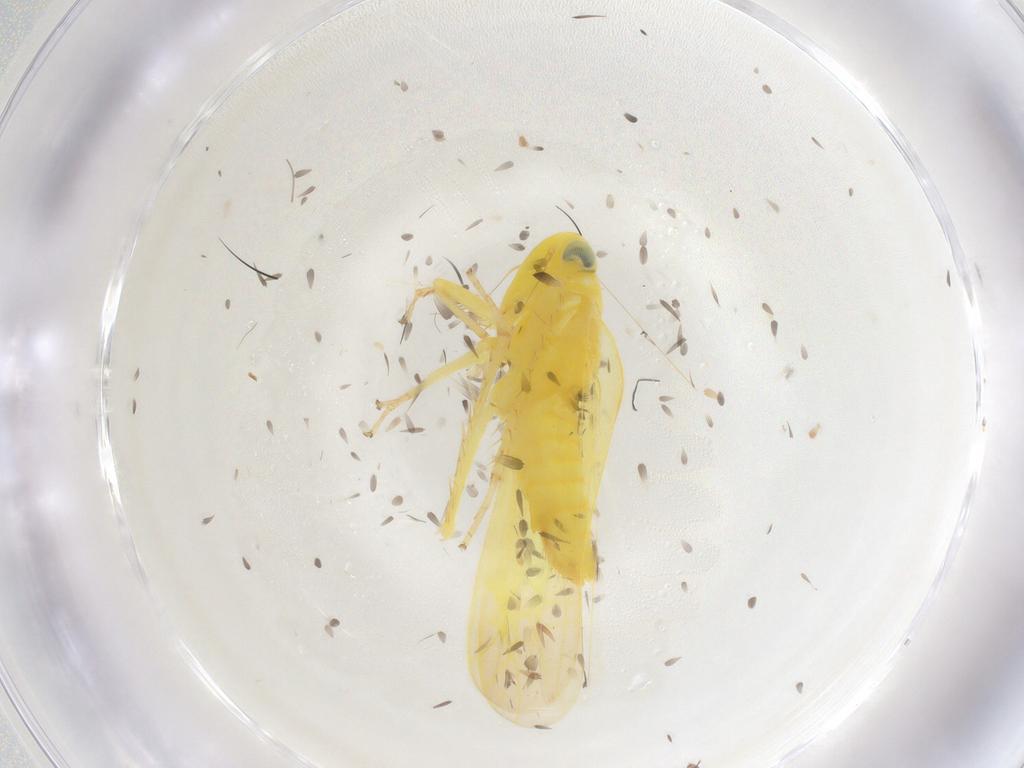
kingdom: Animalia
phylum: Arthropoda
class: Insecta
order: Hemiptera
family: Cicadellidae
